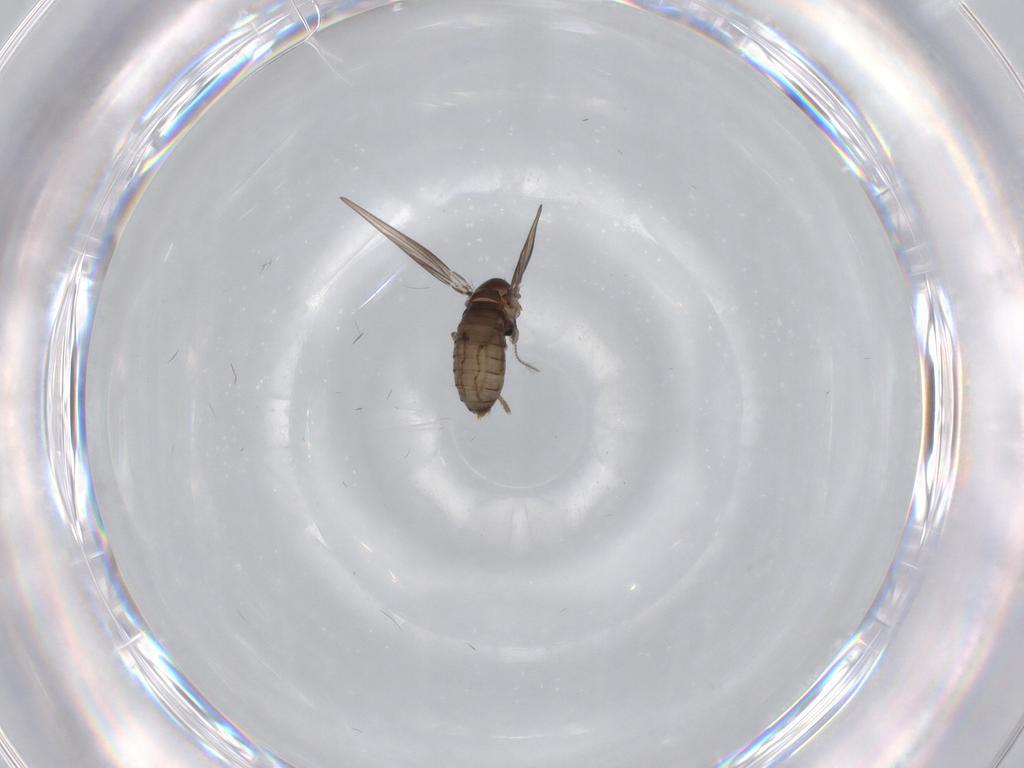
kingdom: Animalia
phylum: Arthropoda
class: Insecta
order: Diptera
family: Psychodidae
